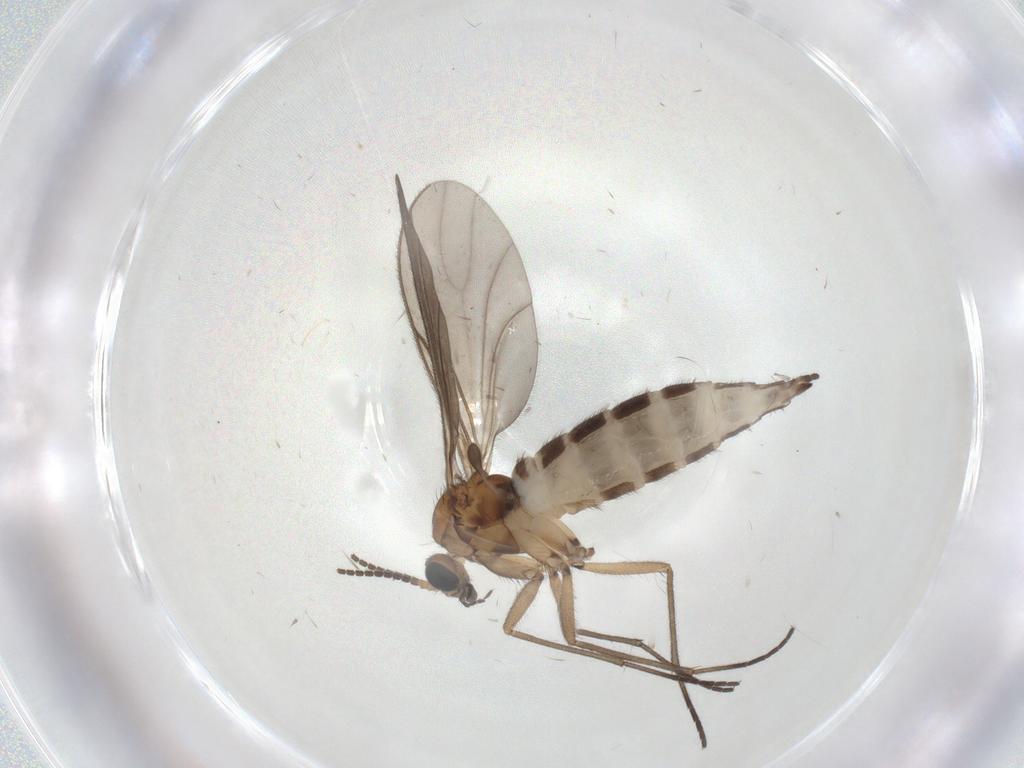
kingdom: Animalia
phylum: Arthropoda
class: Insecta
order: Diptera
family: Sciaridae
